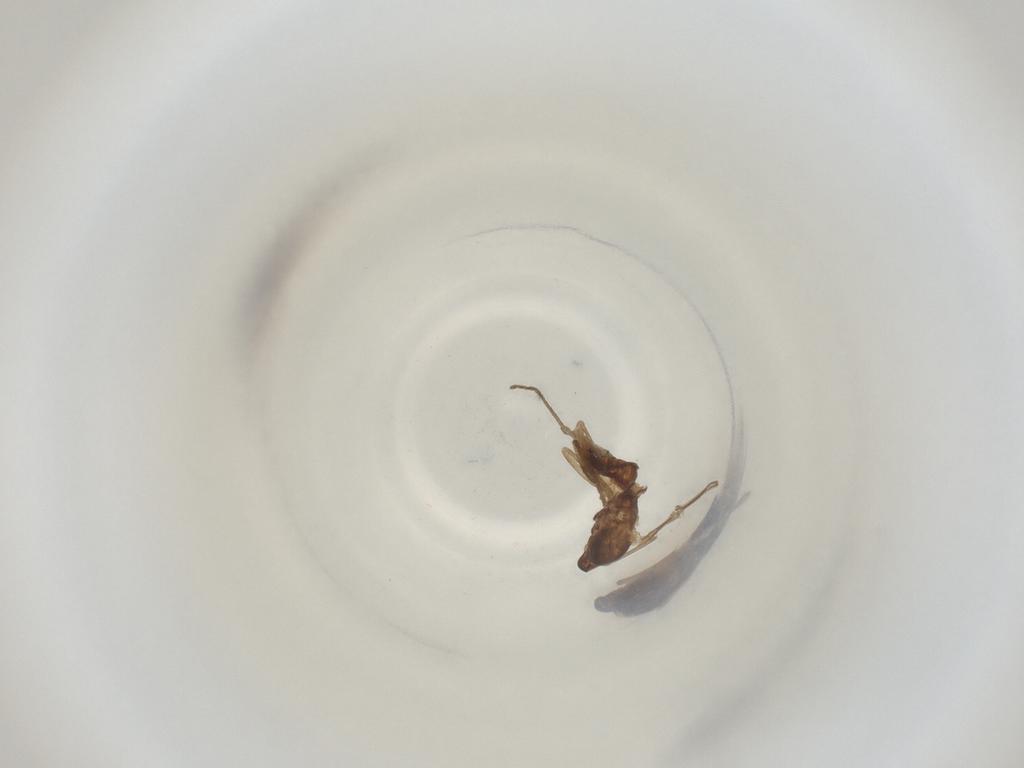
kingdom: Animalia
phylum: Arthropoda
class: Insecta
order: Diptera
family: Cecidomyiidae
